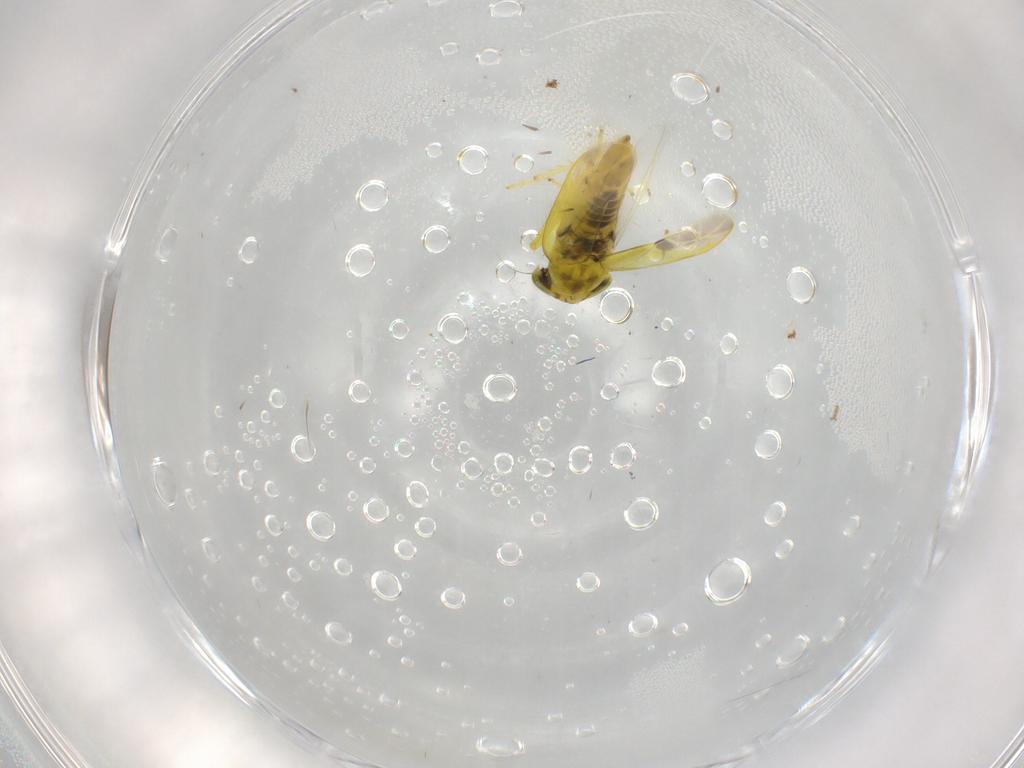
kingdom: Animalia
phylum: Arthropoda
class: Insecta
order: Hemiptera
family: Cicadellidae
